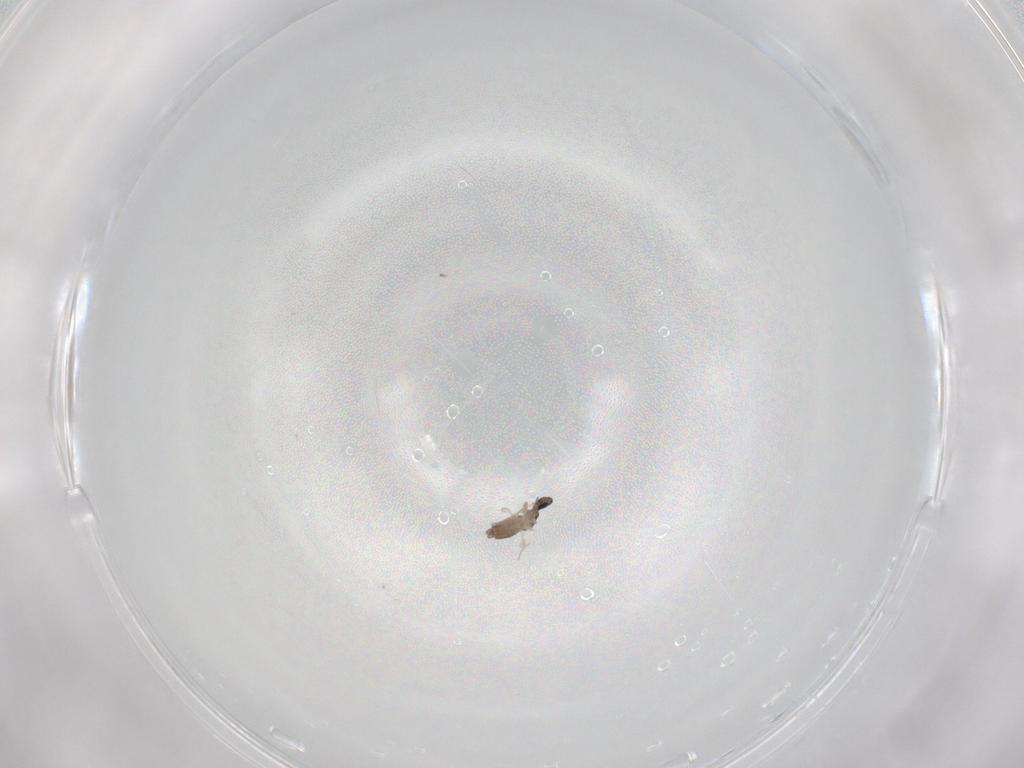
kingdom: Animalia
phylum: Arthropoda
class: Insecta
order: Diptera
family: Cecidomyiidae
